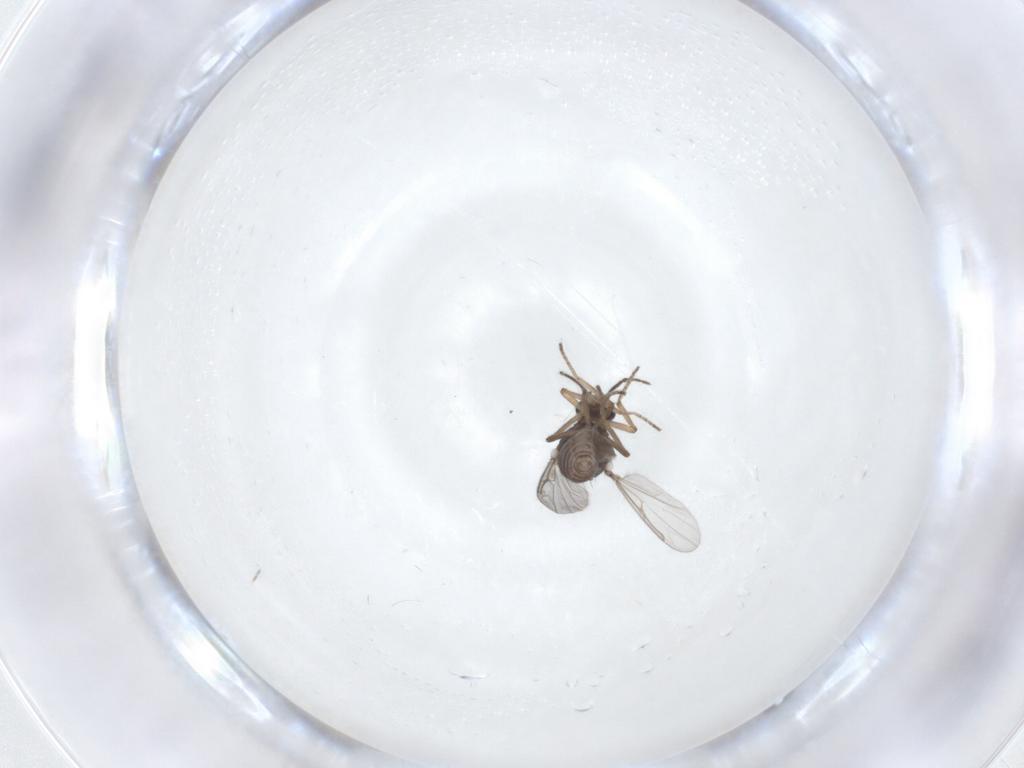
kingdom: Animalia
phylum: Arthropoda
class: Insecta
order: Diptera
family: Ceratopogonidae
